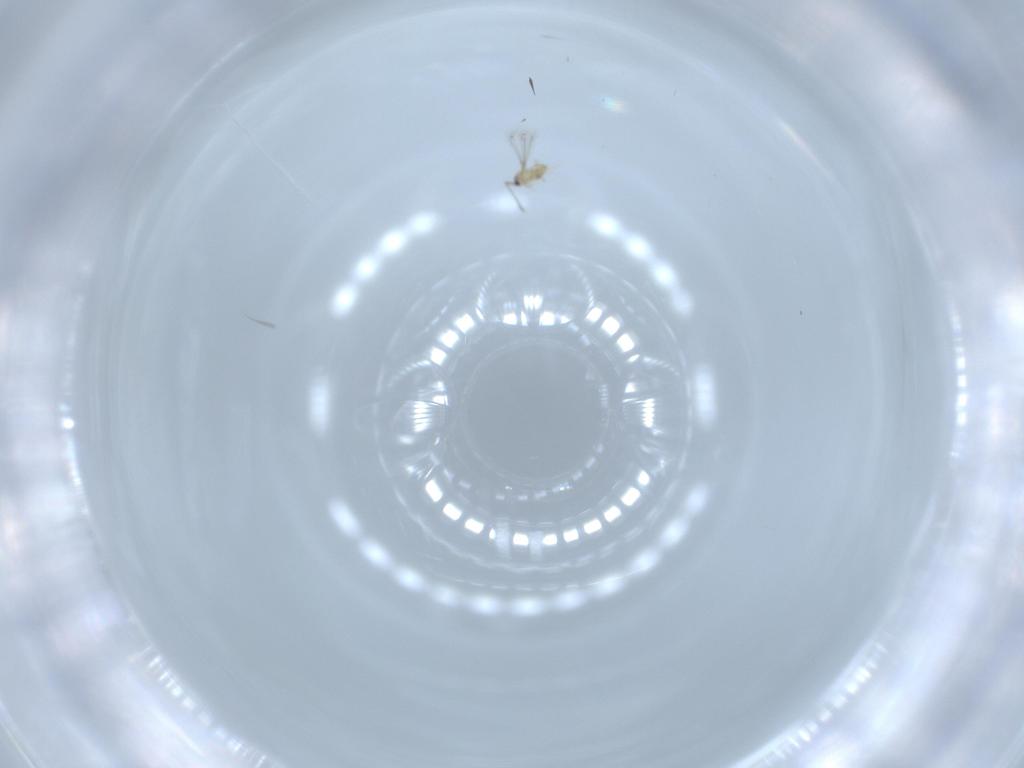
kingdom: Animalia
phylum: Arthropoda
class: Insecta
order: Hymenoptera
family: Mymaridae
